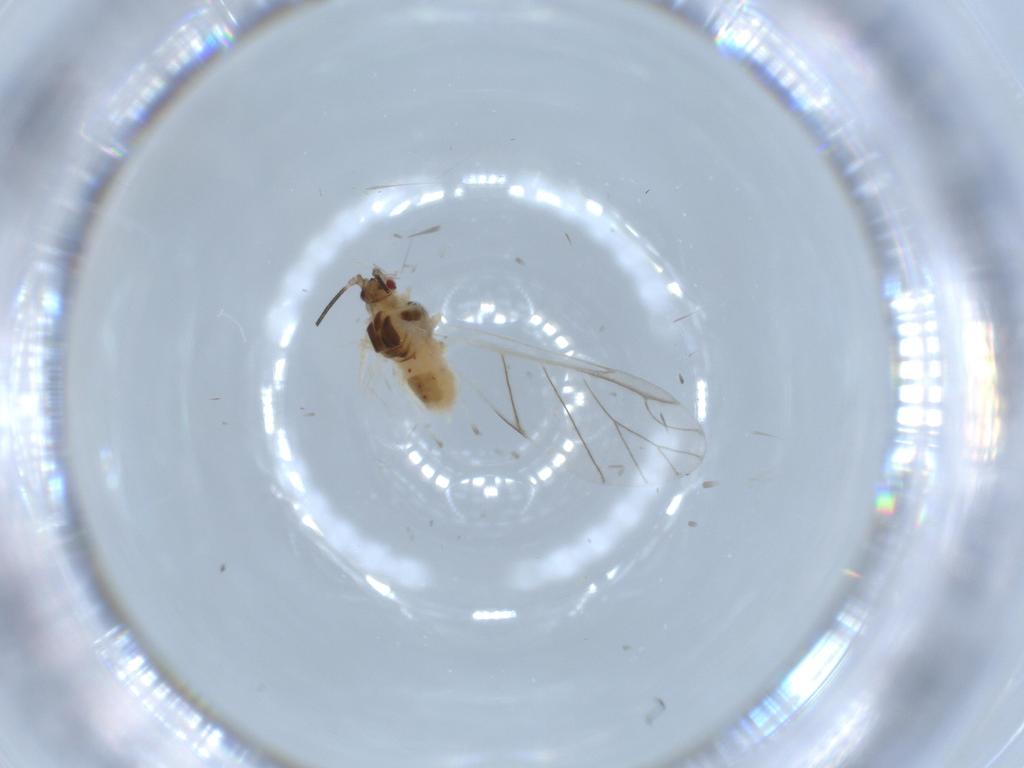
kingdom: Animalia
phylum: Arthropoda
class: Insecta
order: Hemiptera
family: Aphididae
